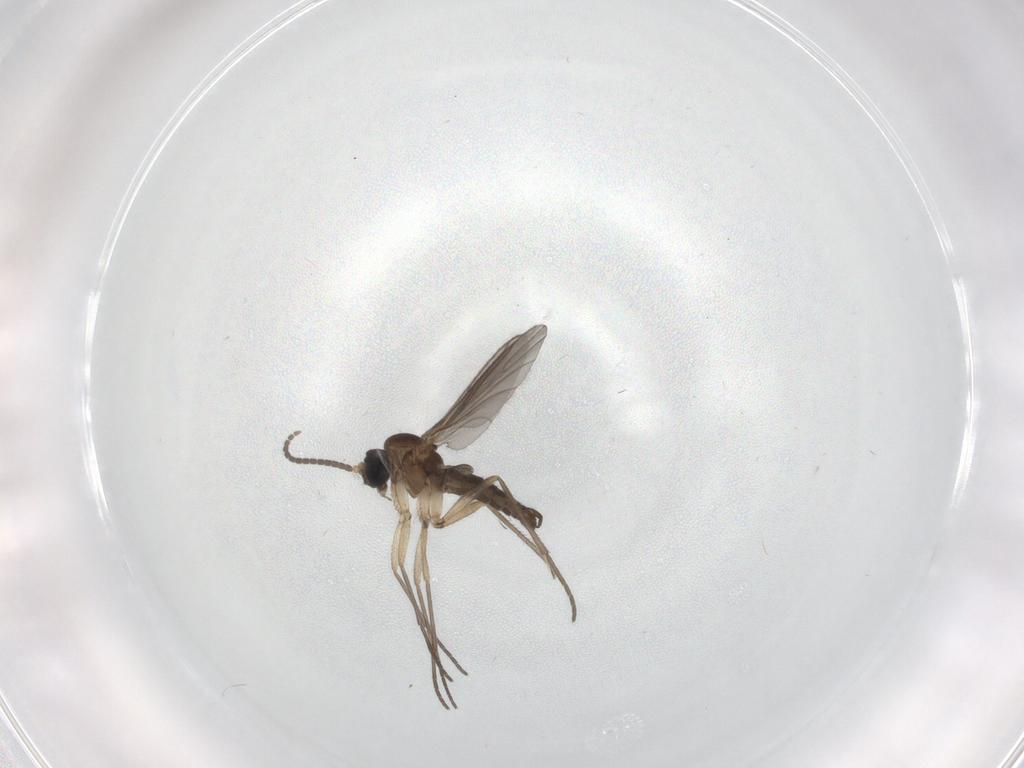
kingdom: Animalia
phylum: Arthropoda
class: Insecta
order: Diptera
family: Sciaridae
